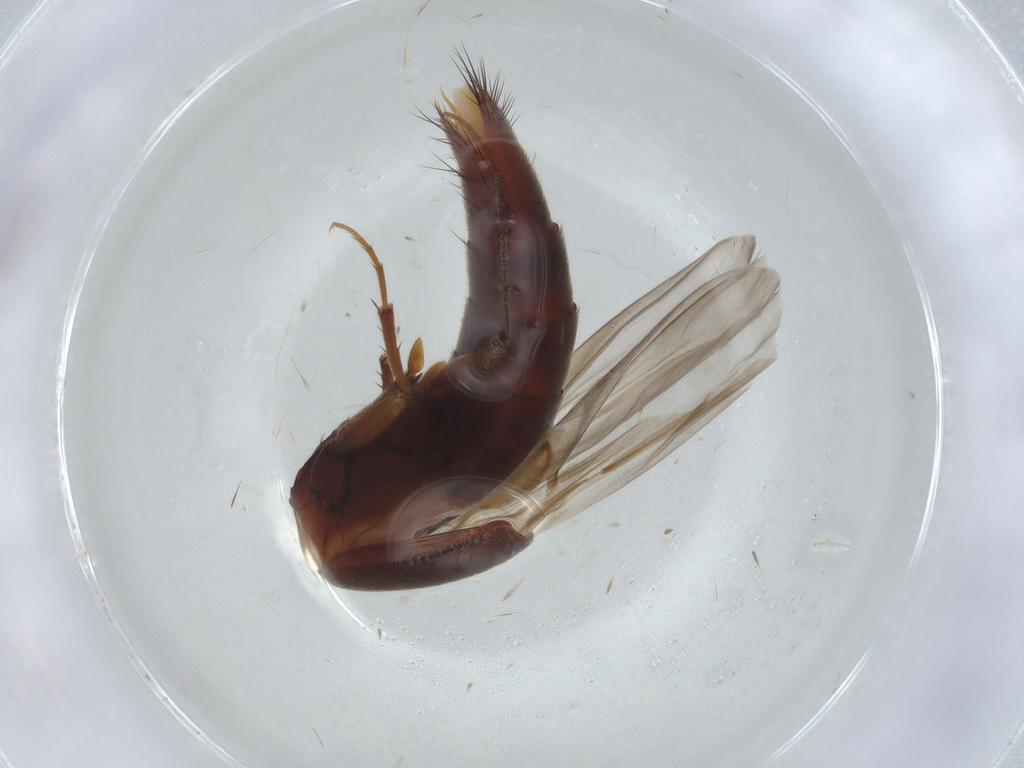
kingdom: Animalia
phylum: Arthropoda
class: Insecta
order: Coleoptera
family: Staphylinidae
